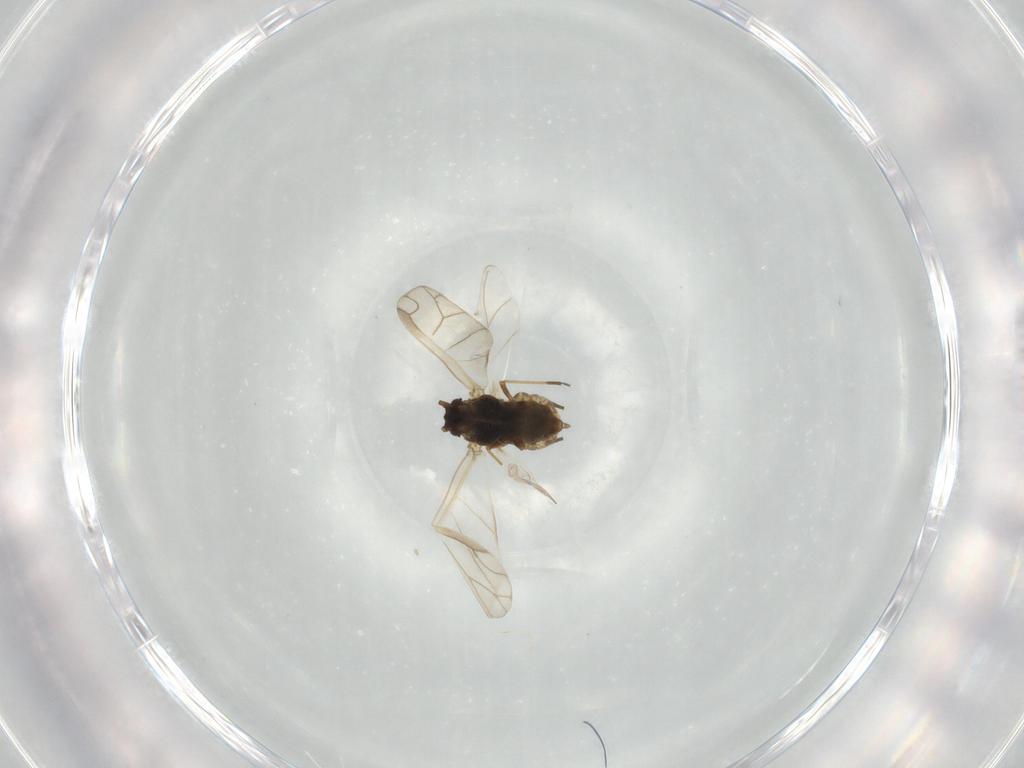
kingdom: Animalia
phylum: Arthropoda
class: Insecta
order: Hemiptera
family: Aphididae
